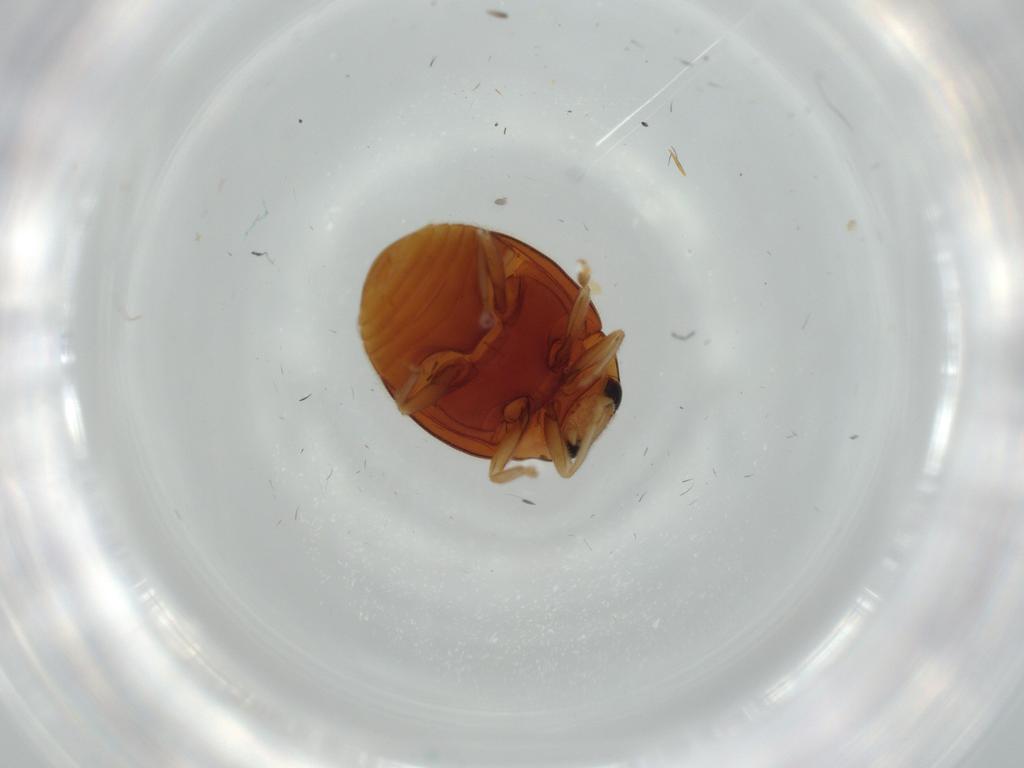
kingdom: Animalia
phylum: Arthropoda
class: Insecta
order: Coleoptera
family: Coccinellidae
